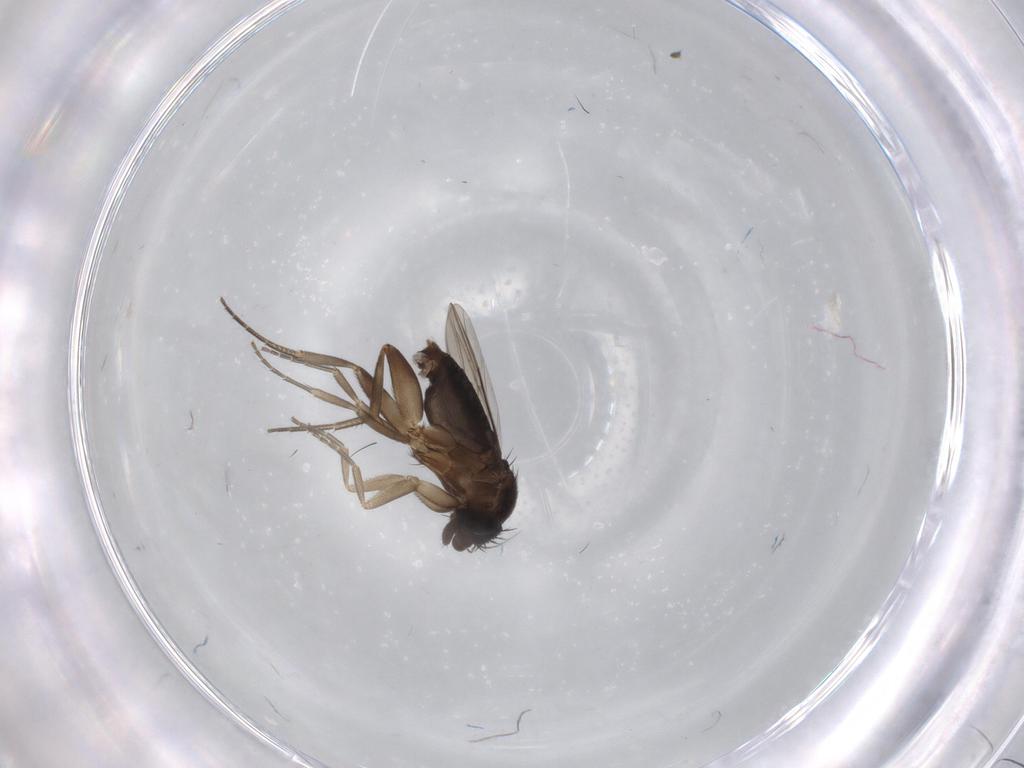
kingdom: Animalia
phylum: Arthropoda
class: Insecta
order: Diptera
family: Phoridae
